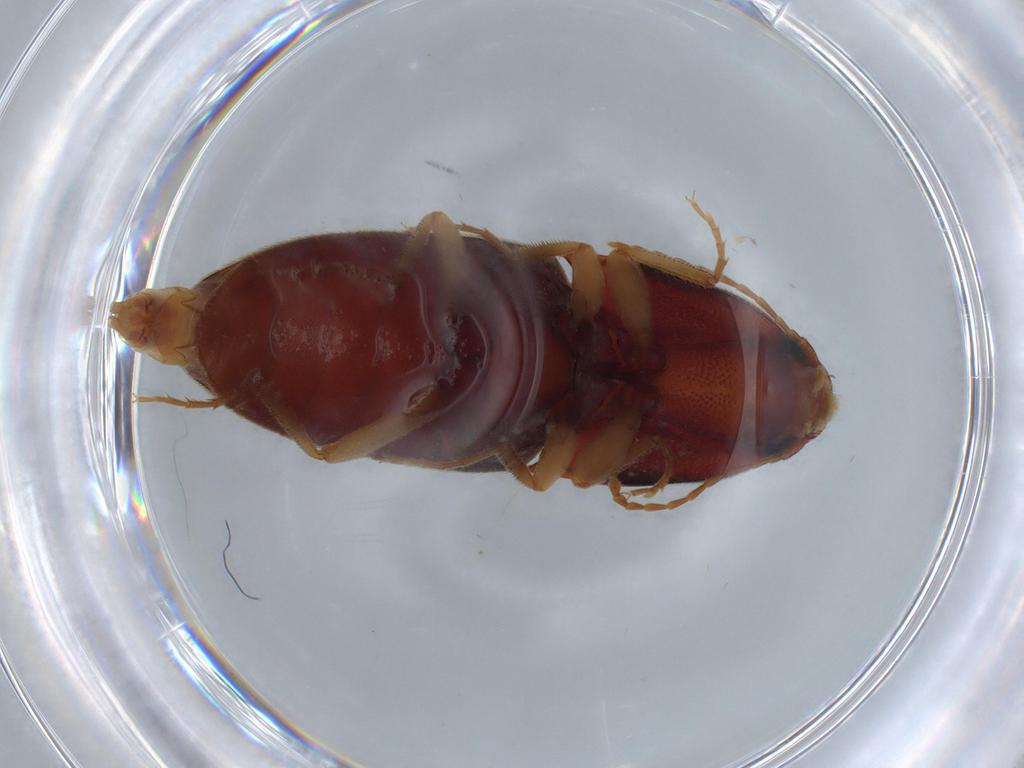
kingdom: Animalia
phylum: Arthropoda
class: Insecta
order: Coleoptera
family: Elateridae
